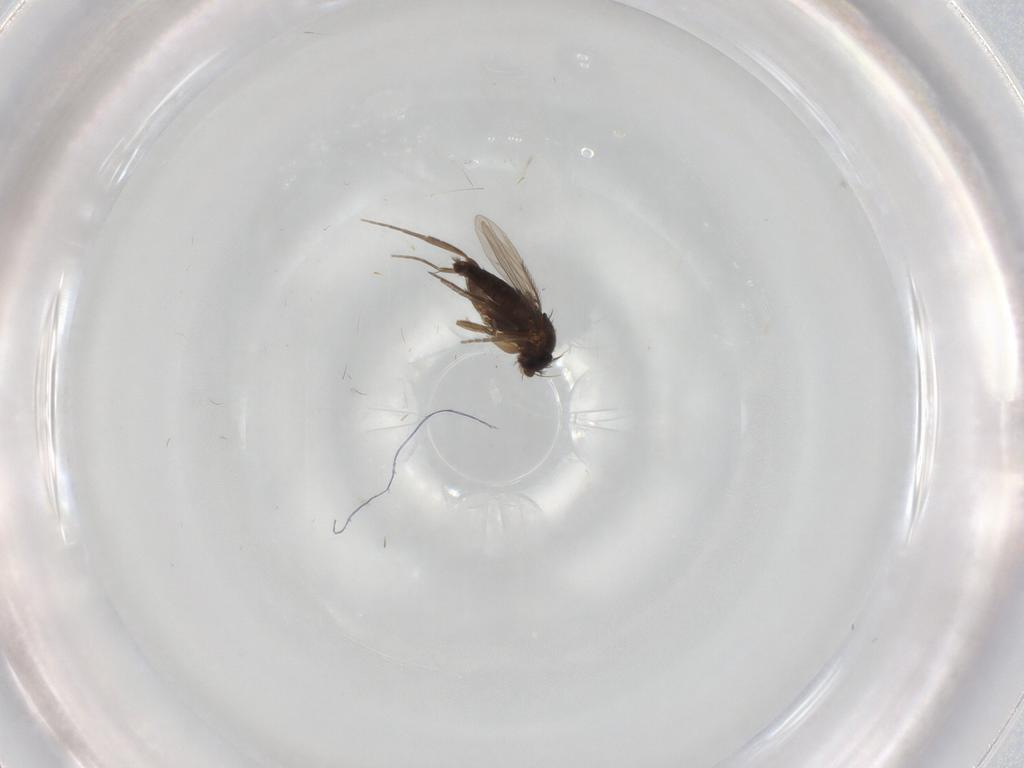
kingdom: Animalia
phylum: Arthropoda
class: Insecta
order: Diptera
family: Phoridae
